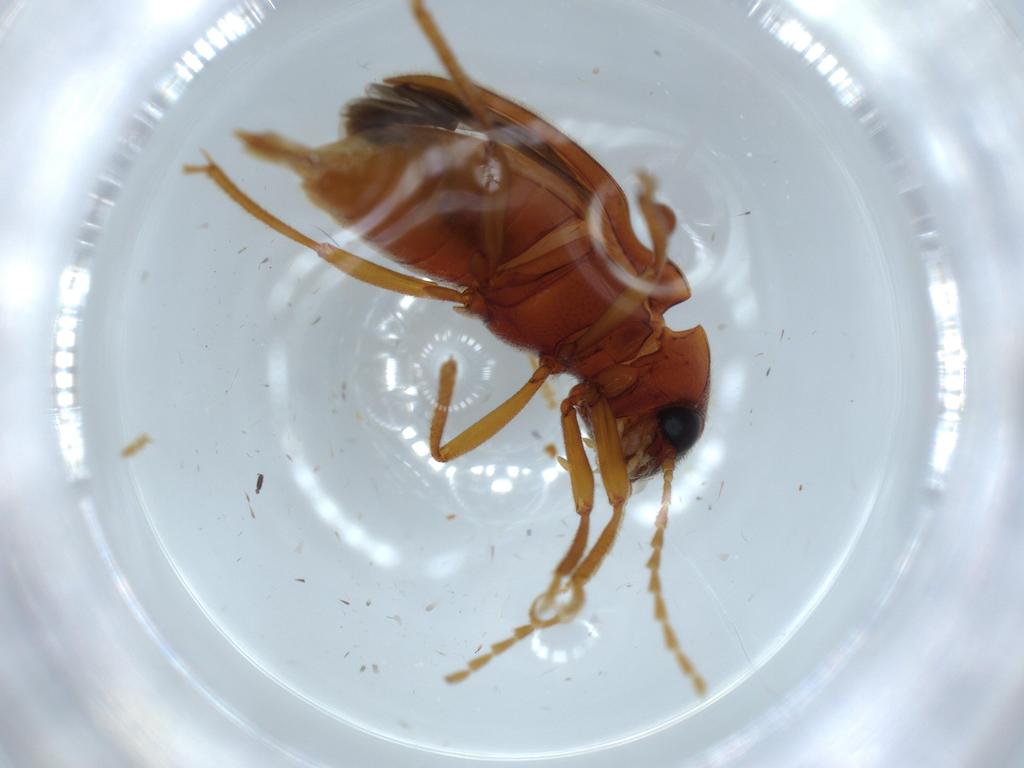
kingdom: Animalia
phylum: Arthropoda
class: Insecta
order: Coleoptera
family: Ptilodactylidae
